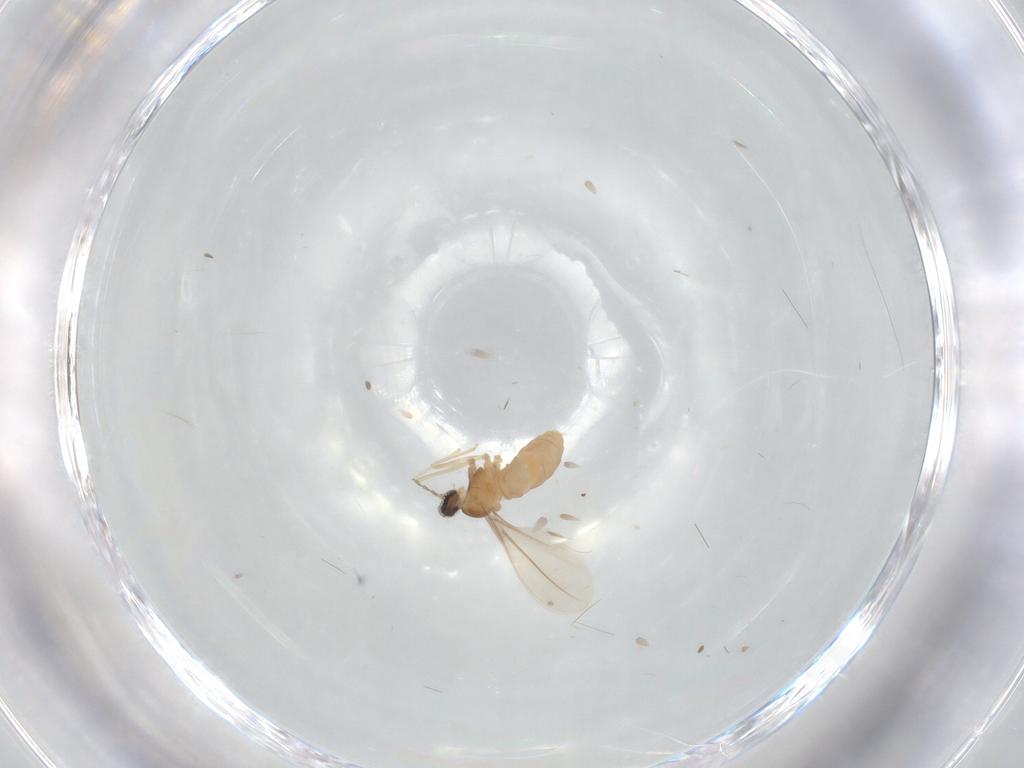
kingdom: Animalia
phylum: Arthropoda
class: Insecta
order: Diptera
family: Cecidomyiidae
